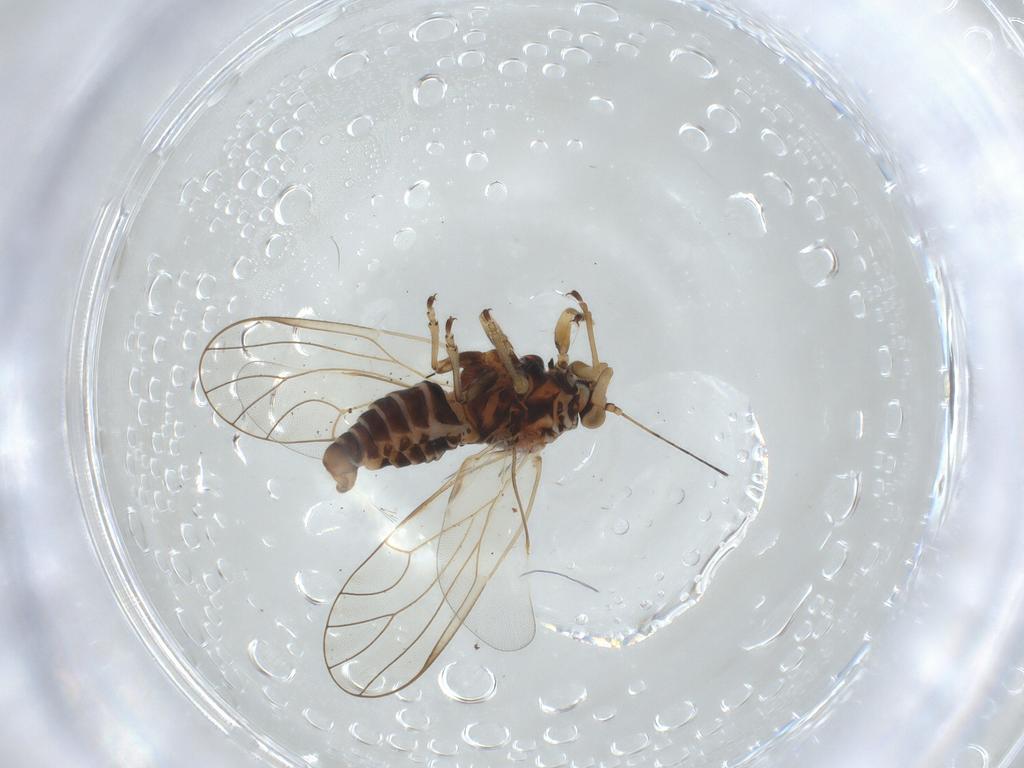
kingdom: Animalia
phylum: Arthropoda
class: Insecta
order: Hemiptera
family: Psyllidae
